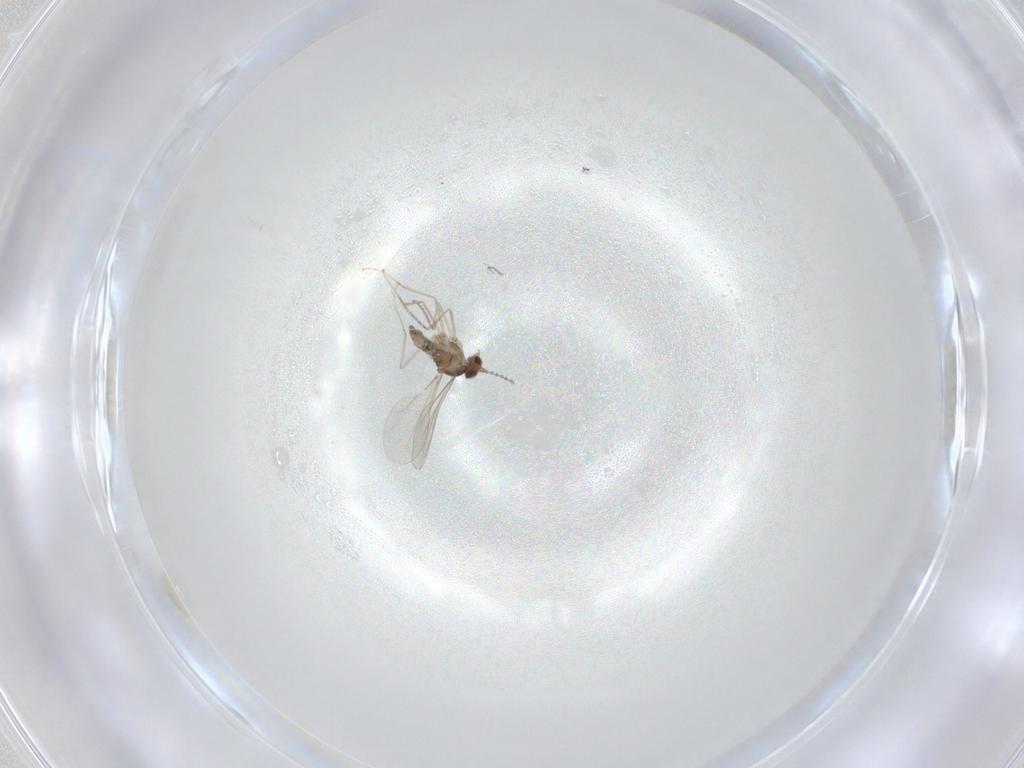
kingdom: Animalia
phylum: Arthropoda
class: Insecta
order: Diptera
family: Cecidomyiidae
